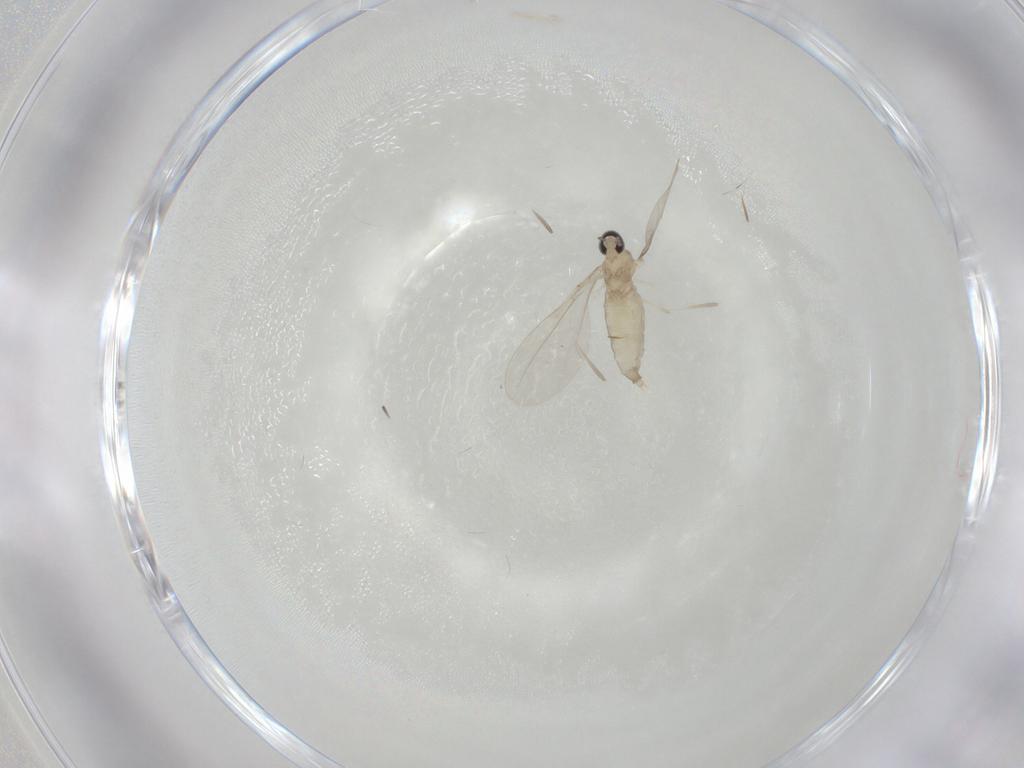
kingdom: Animalia
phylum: Arthropoda
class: Insecta
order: Diptera
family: Cecidomyiidae
